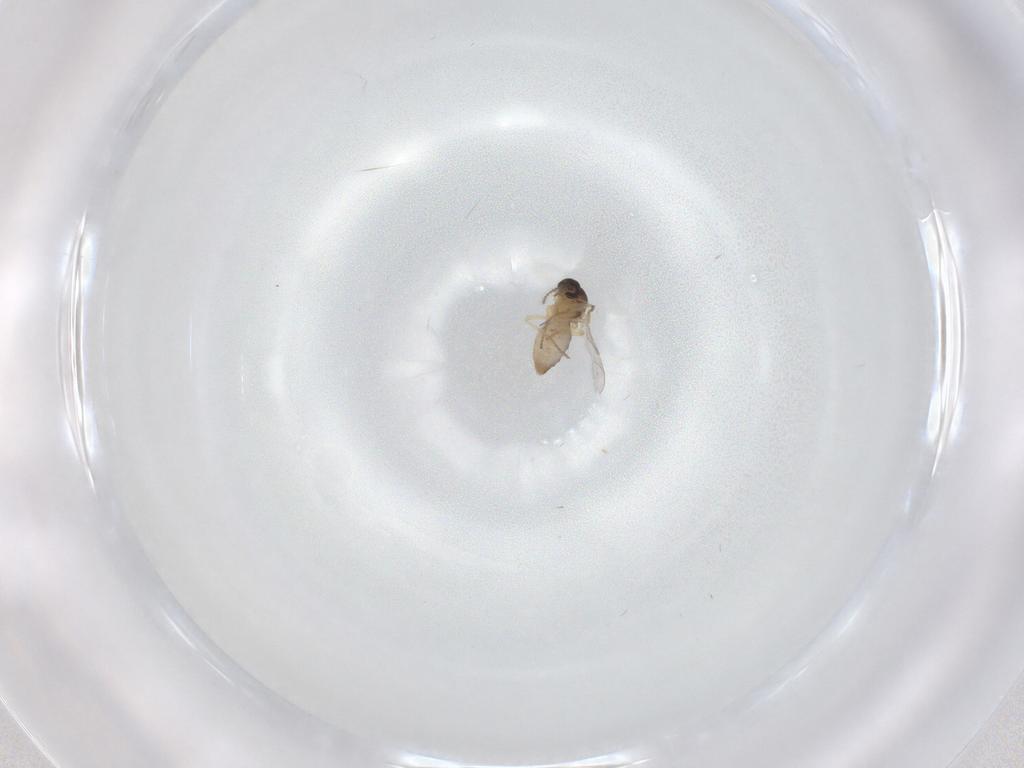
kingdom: Animalia
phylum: Arthropoda
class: Insecta
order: Diptera
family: Ceratopogonidae
